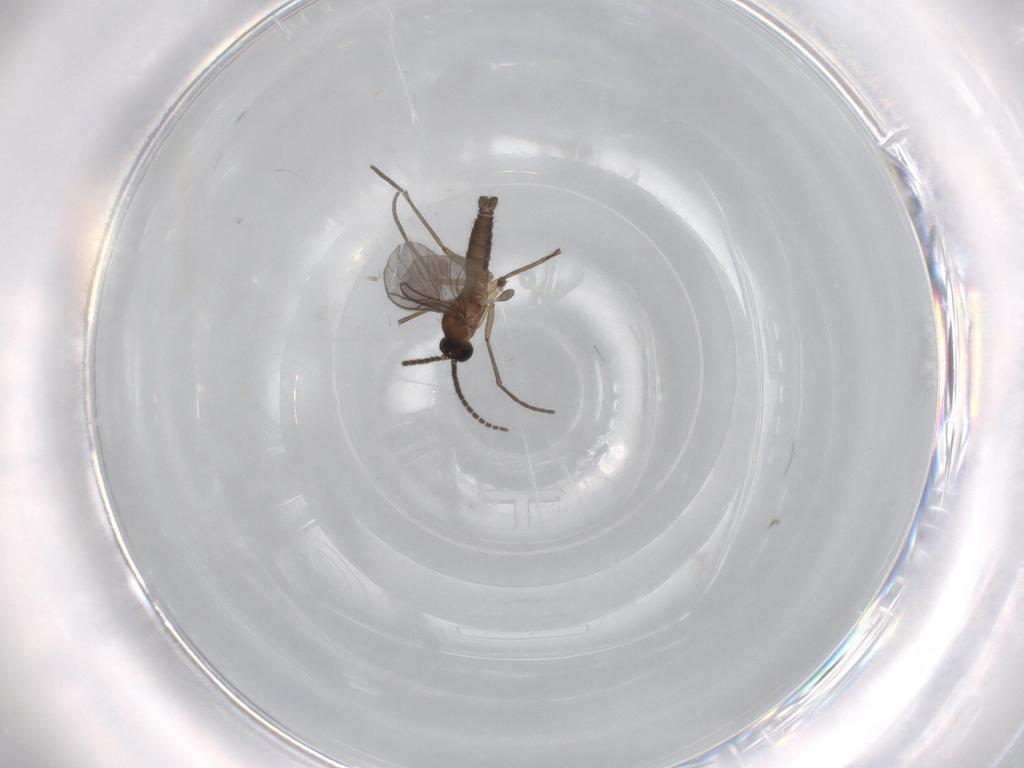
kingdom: Animalia
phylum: Arthropoda
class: Insecta
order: Diptera
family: Sciaridae
